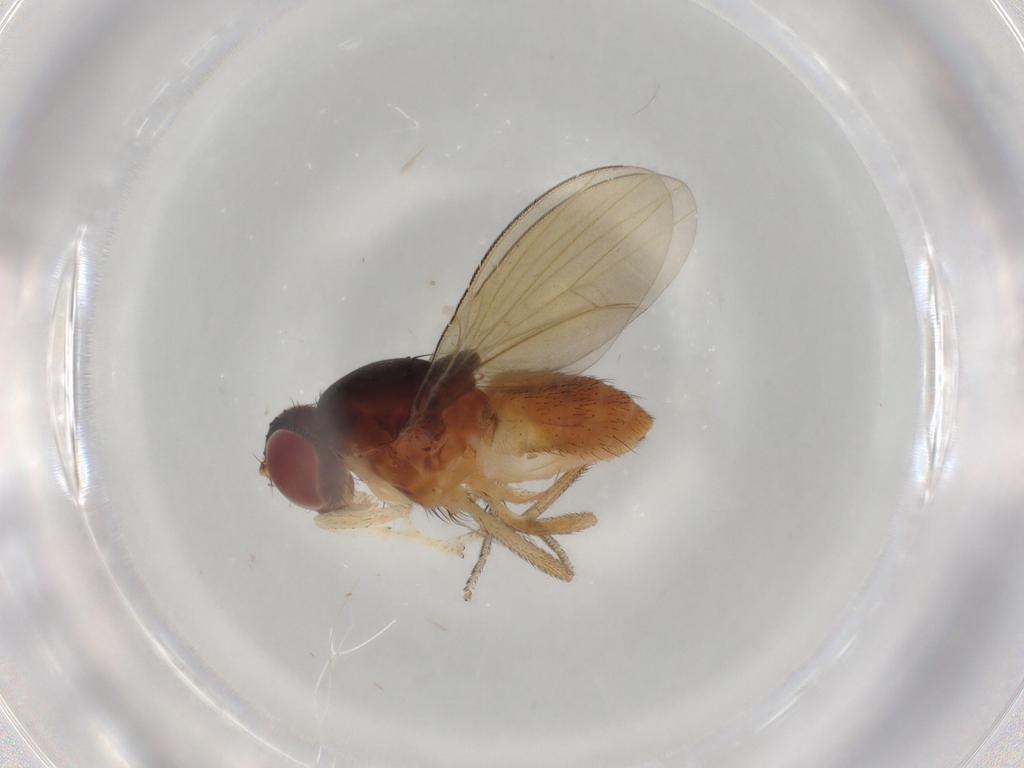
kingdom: Animalia
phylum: Arthropoda
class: Insecta
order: Diptera
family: Lauxaniidae
